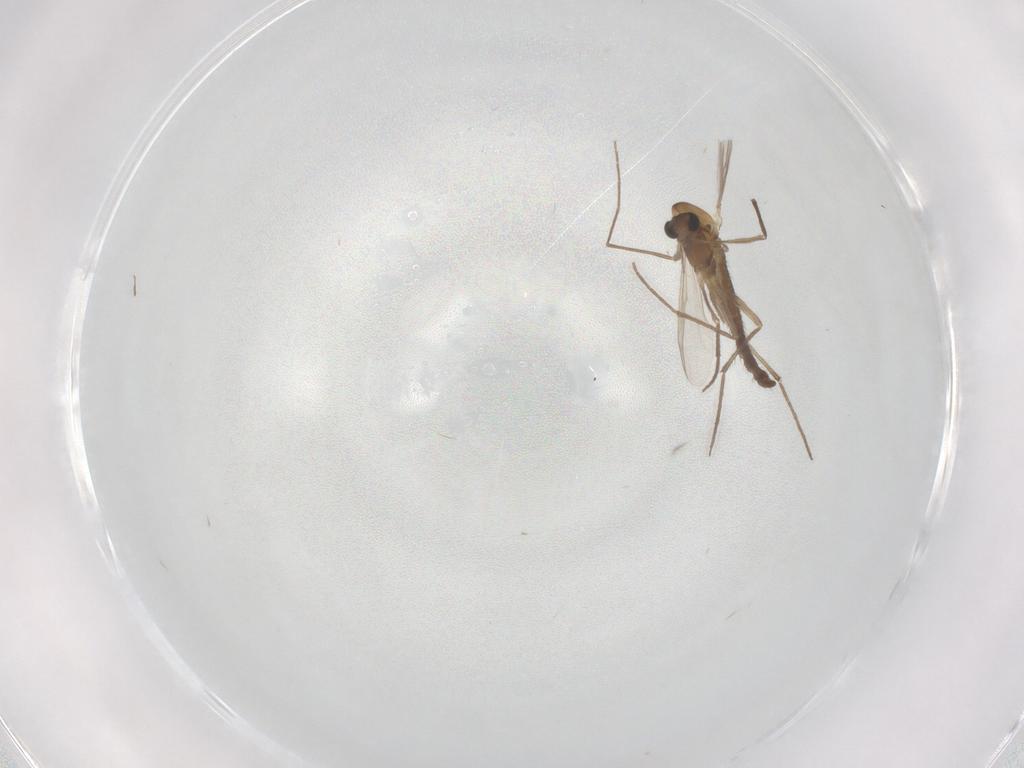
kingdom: Animalia
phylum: Arthropoda
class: Insecta
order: Diptera
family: Chironomidae
